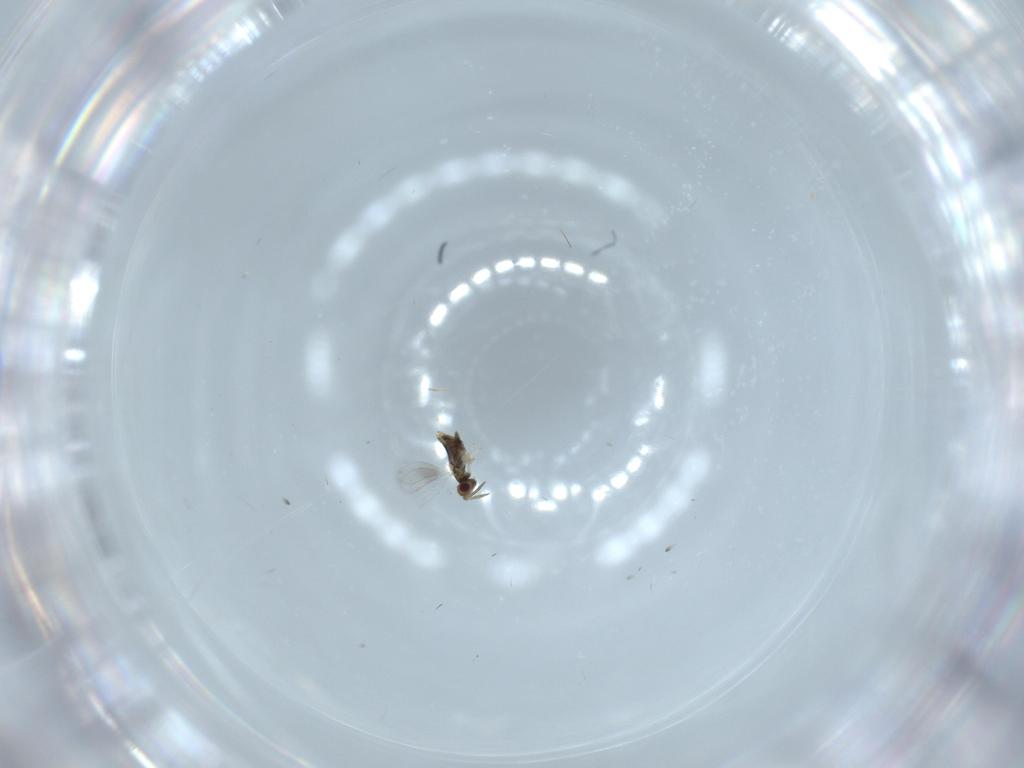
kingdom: Animalia
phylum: Arthropoda
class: Insecta
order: Hymenoptera
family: Aphelinidae
